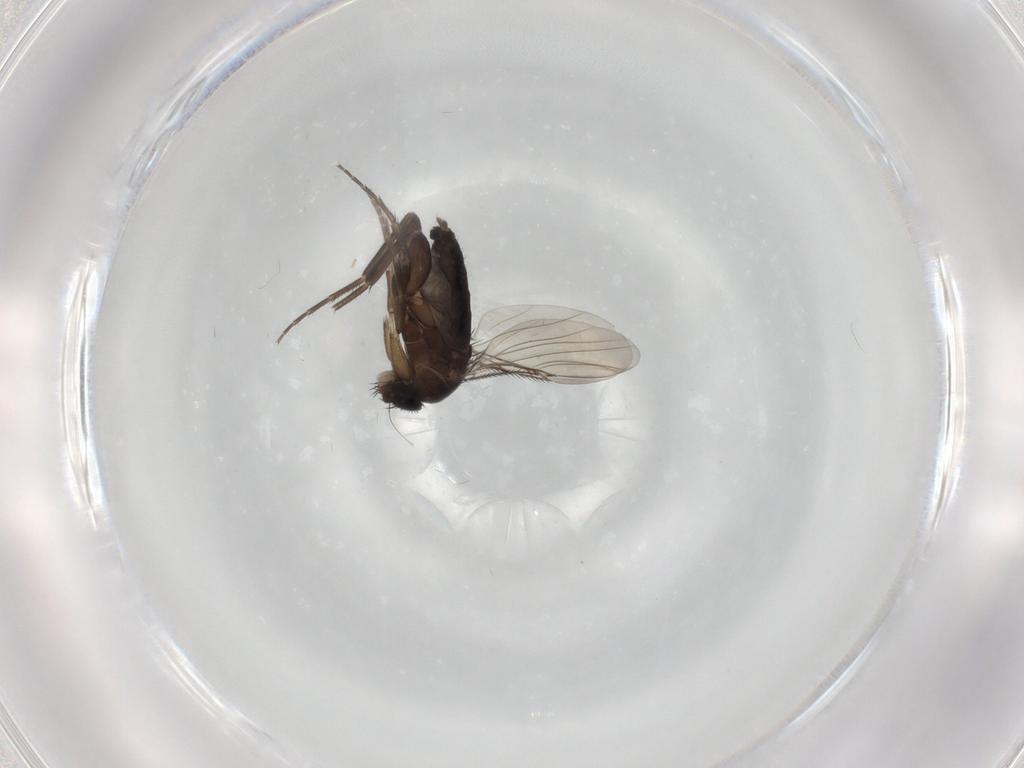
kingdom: Animalia
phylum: Arthropoda
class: Insecta
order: Diptera
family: Phoridae
